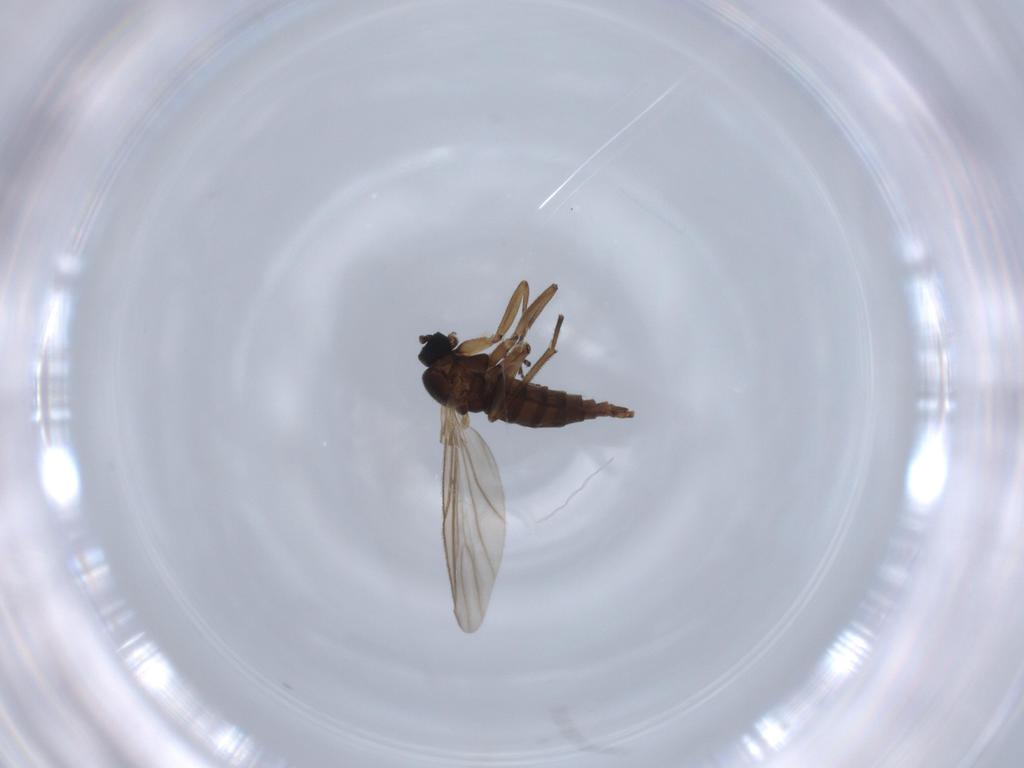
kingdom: Animalia
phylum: Arthropoda
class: Insecta
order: Diptera
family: Sciaridae
